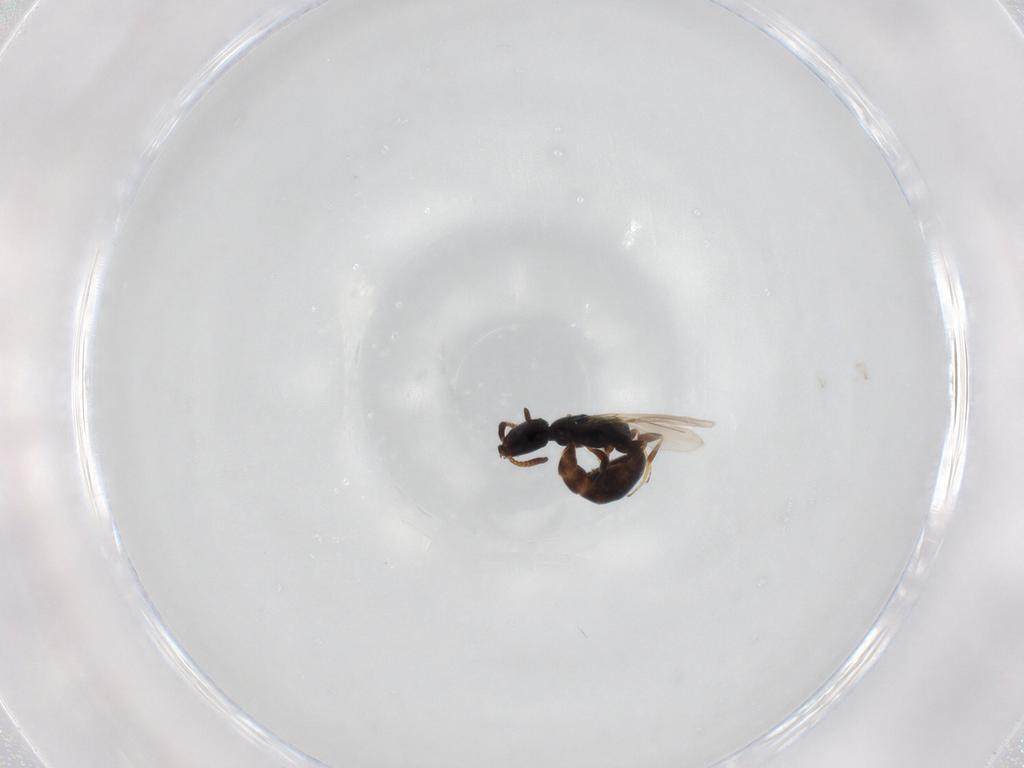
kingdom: Animalia
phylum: Arthropoda
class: Insecta
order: Hymenoptera
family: Bethylidae
